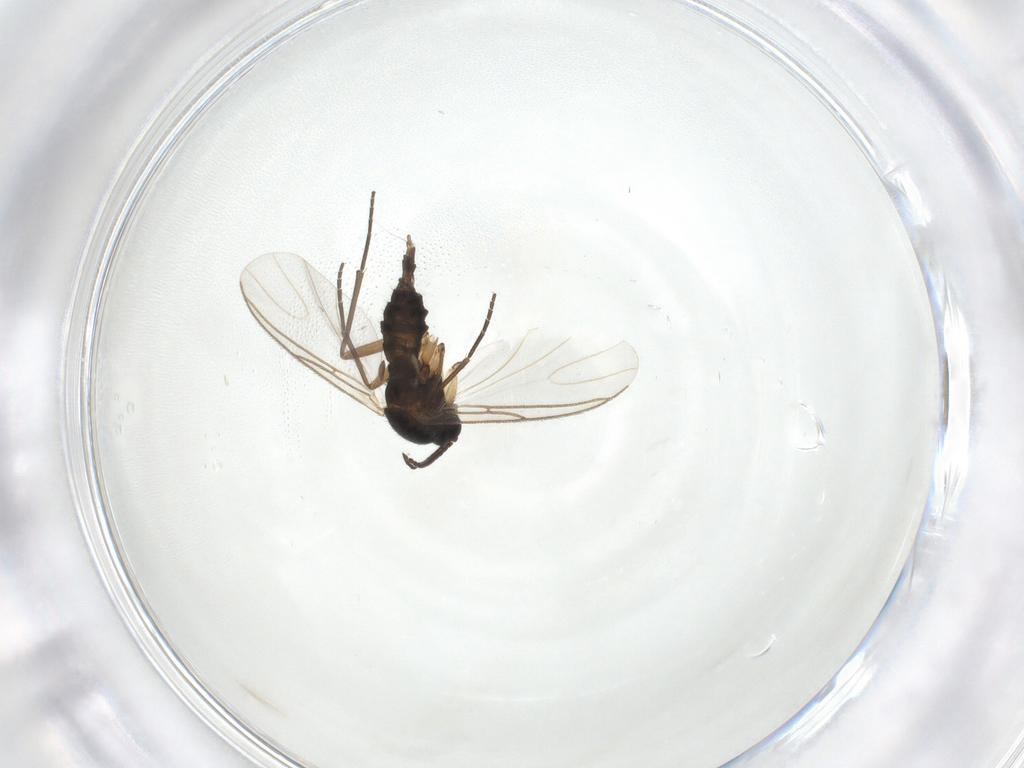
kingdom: Animalia
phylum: Arthropoda
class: Insecta
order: Diptera
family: Sciaridae
